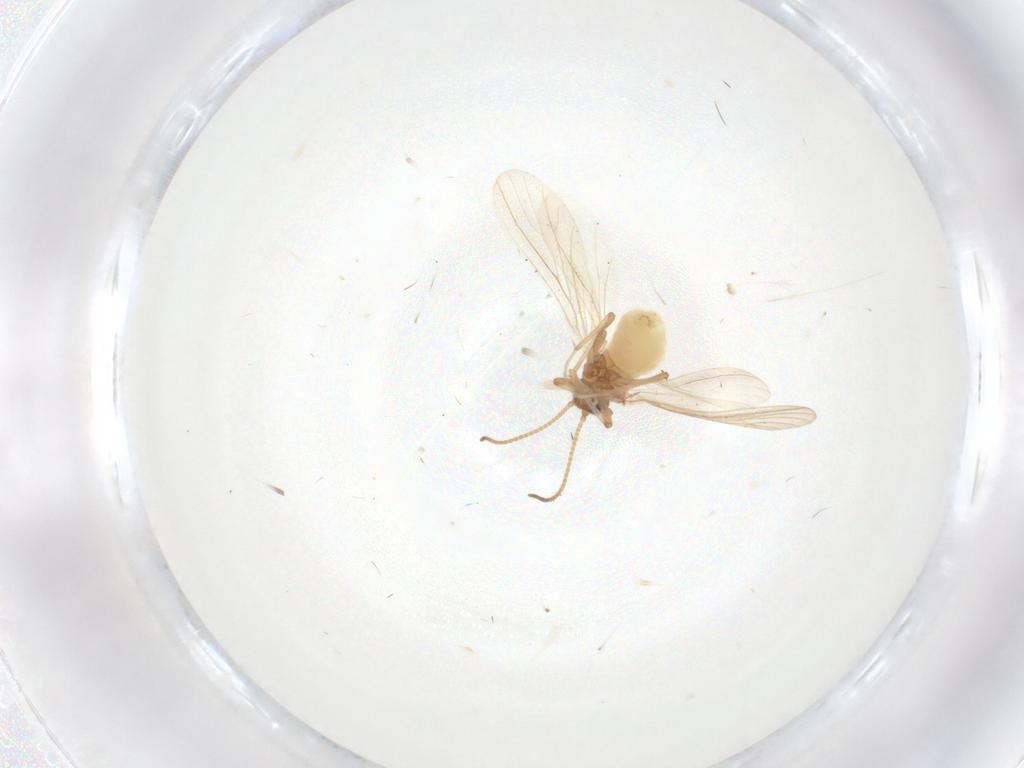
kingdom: Animalia
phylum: Arthropoda
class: Insecta
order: Neuroptera
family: Coniopterygidae
